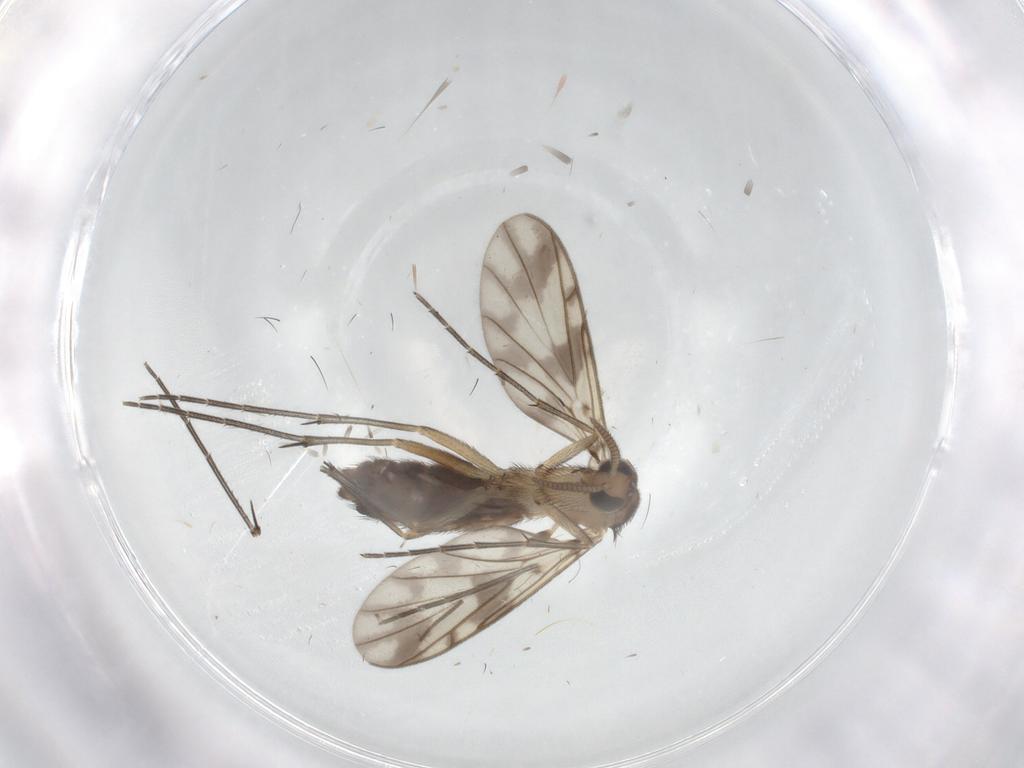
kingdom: Animalia
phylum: Arthropoda
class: Insecta
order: Diptera
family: Keroplatidae
